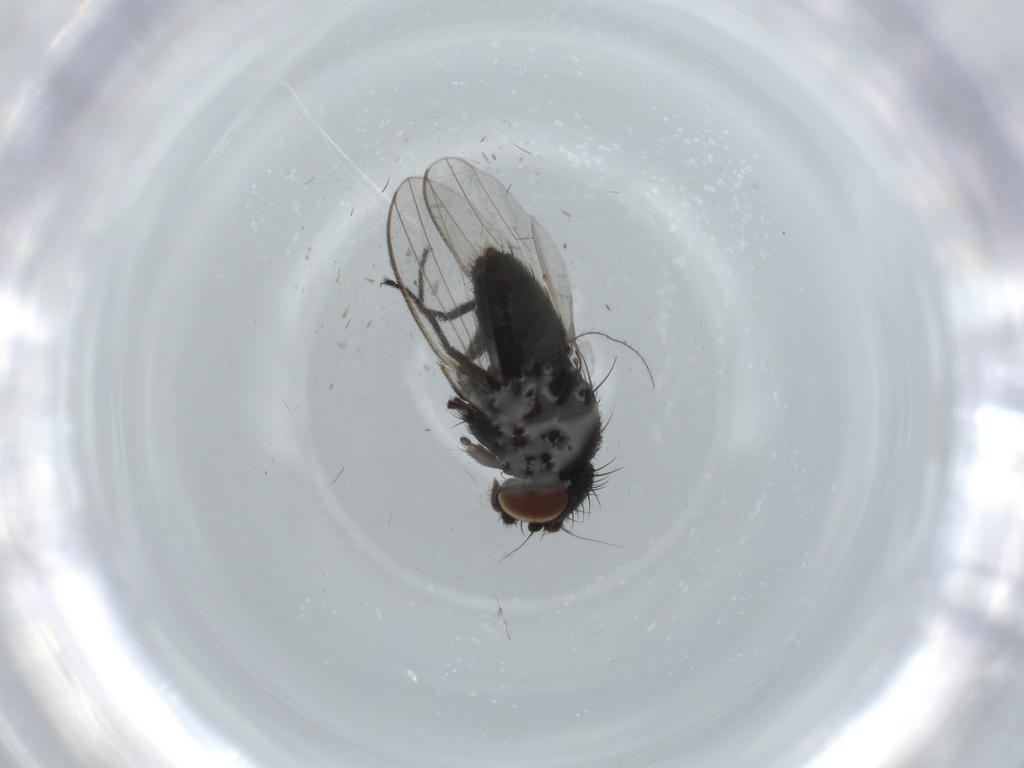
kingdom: Animalia
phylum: Arthropoda
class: Insecta
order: Diptera
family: Milichiidae
